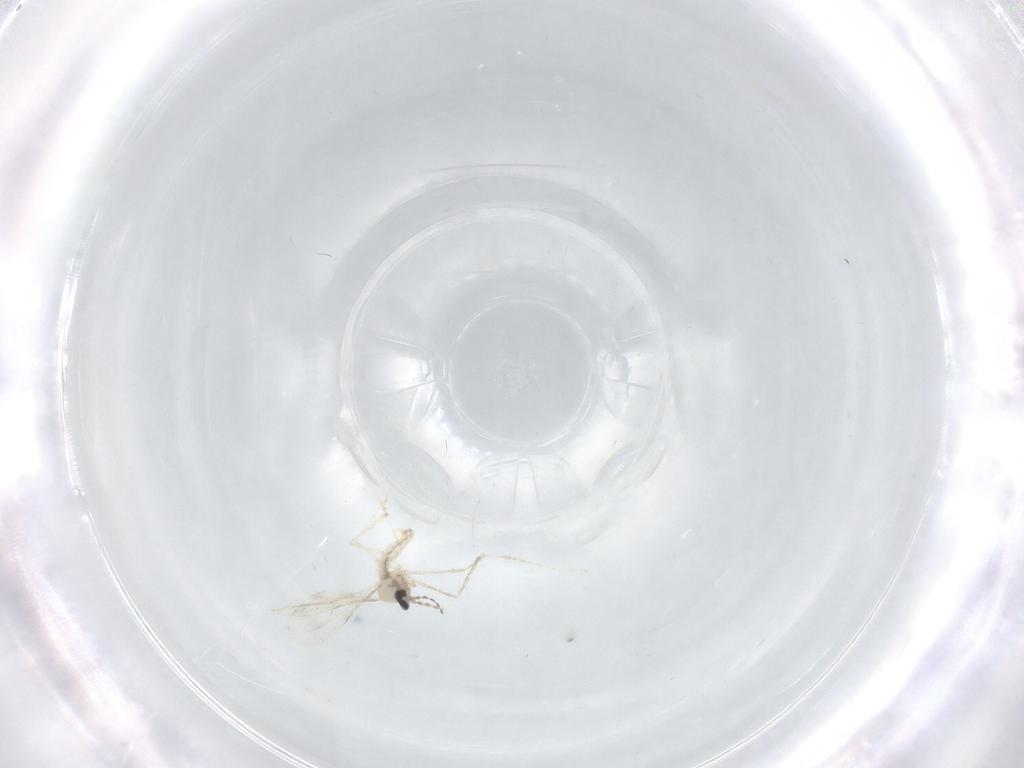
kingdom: Animalia
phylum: Arthropoda
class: Insecta
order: Diptera
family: Cecidomyiidae
